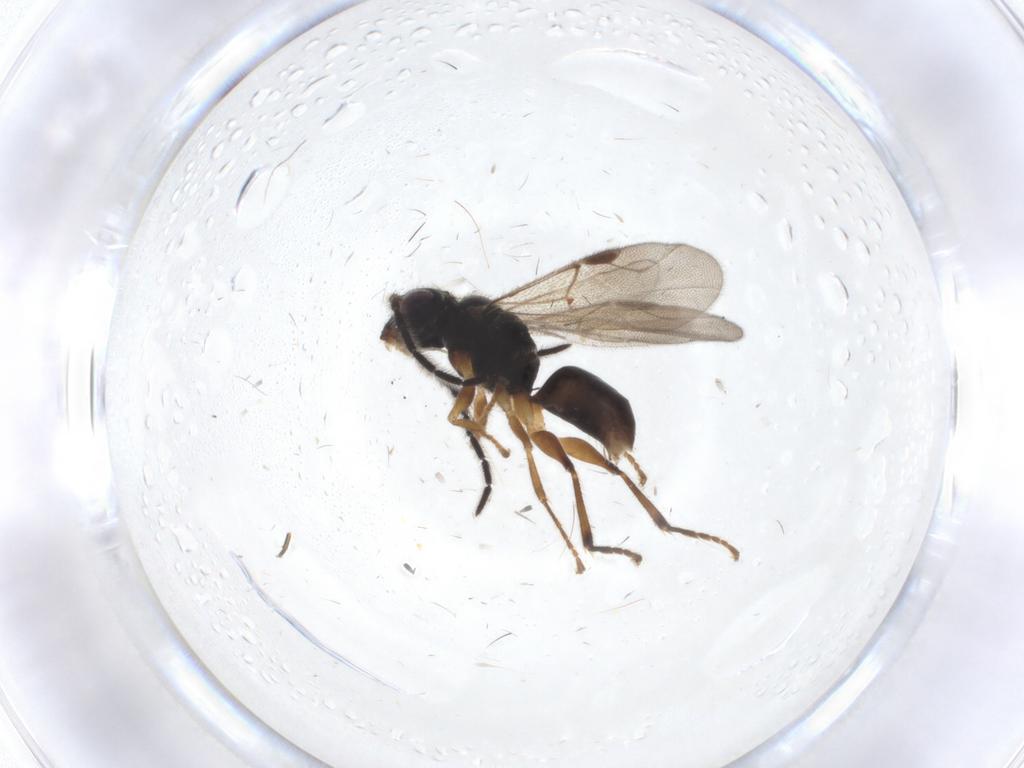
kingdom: Animalia
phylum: Arthropoda
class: Insecta
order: Hymenoptera
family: Dryinidae
